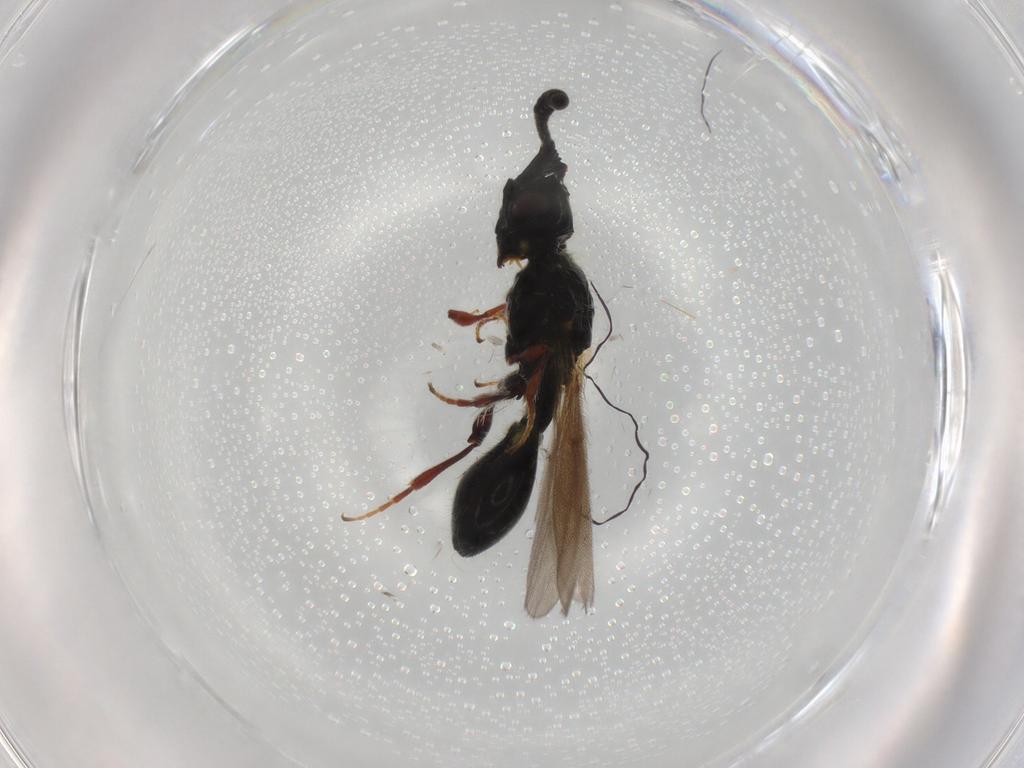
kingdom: Animalia
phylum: Arthropoda
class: Insecta
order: Hymenoptera
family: Diapriidae
